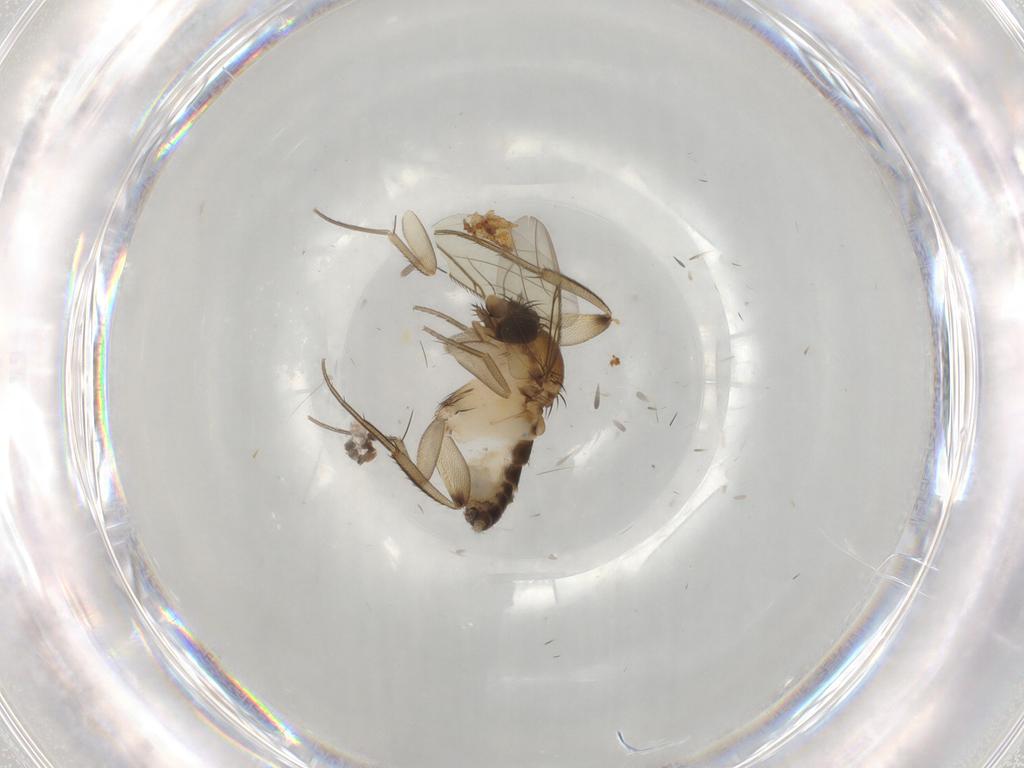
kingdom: Animalia
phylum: Arthropoda
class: Insecta
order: Diptera
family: Phoridae
